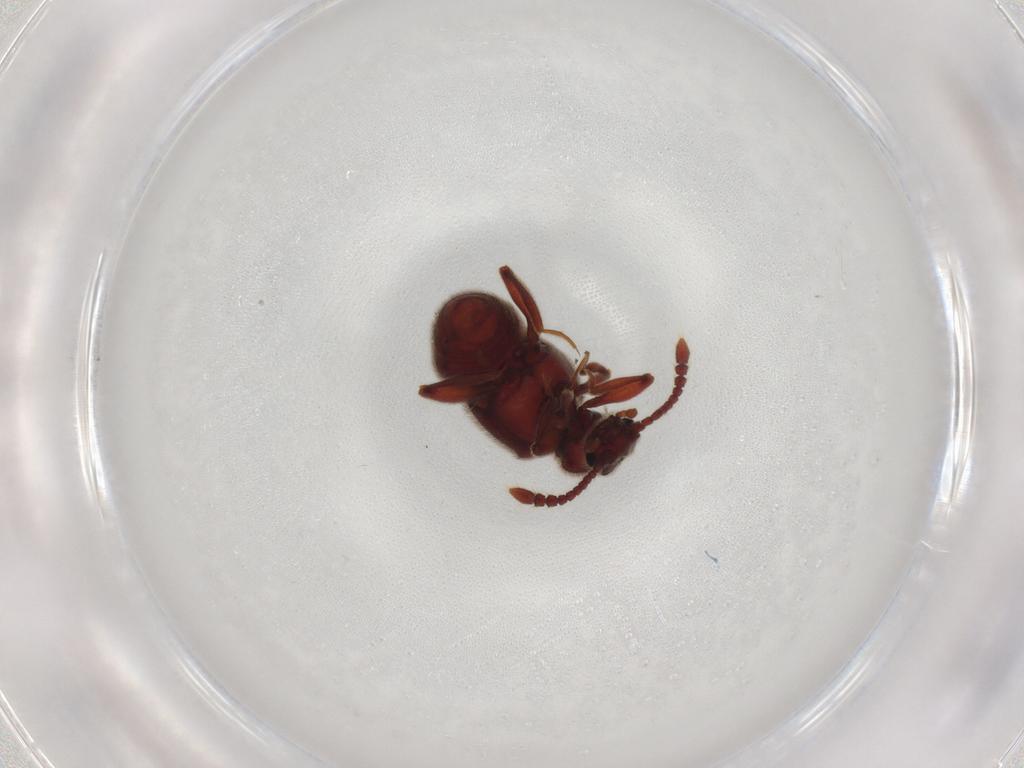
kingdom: Animalia
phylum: Arthropoda
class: Insecta
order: Coleoptera
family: Staphylinidae
